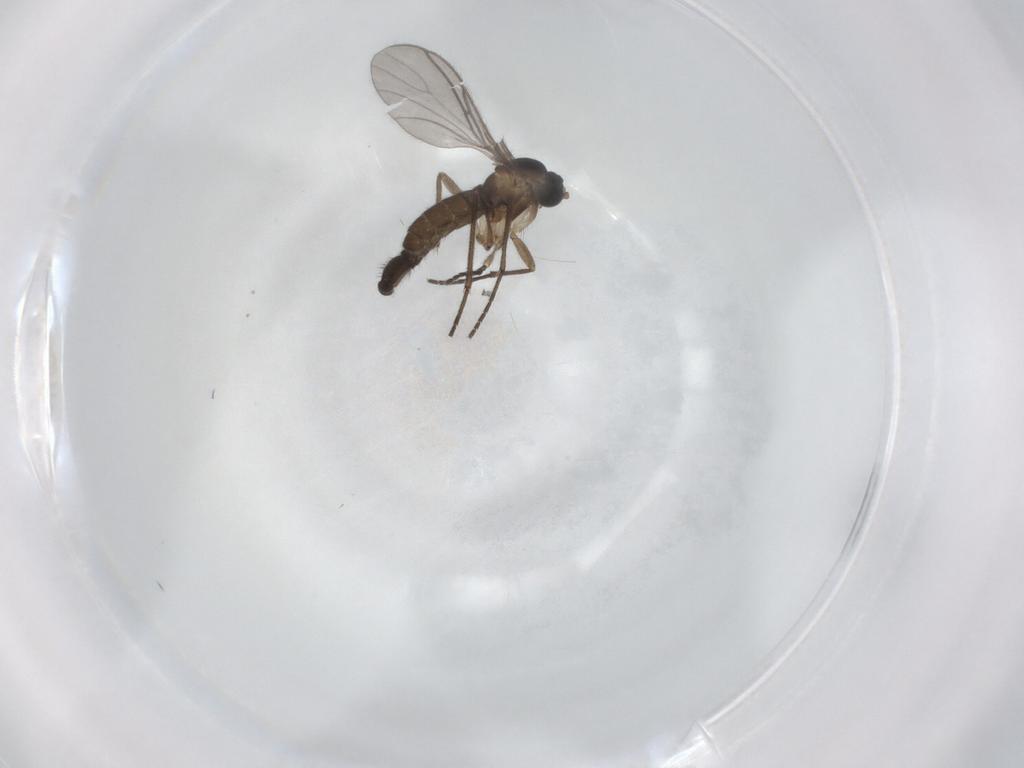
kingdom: Animalia
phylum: Arthropoda
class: Insecta
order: Diptera
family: Sciaridae
